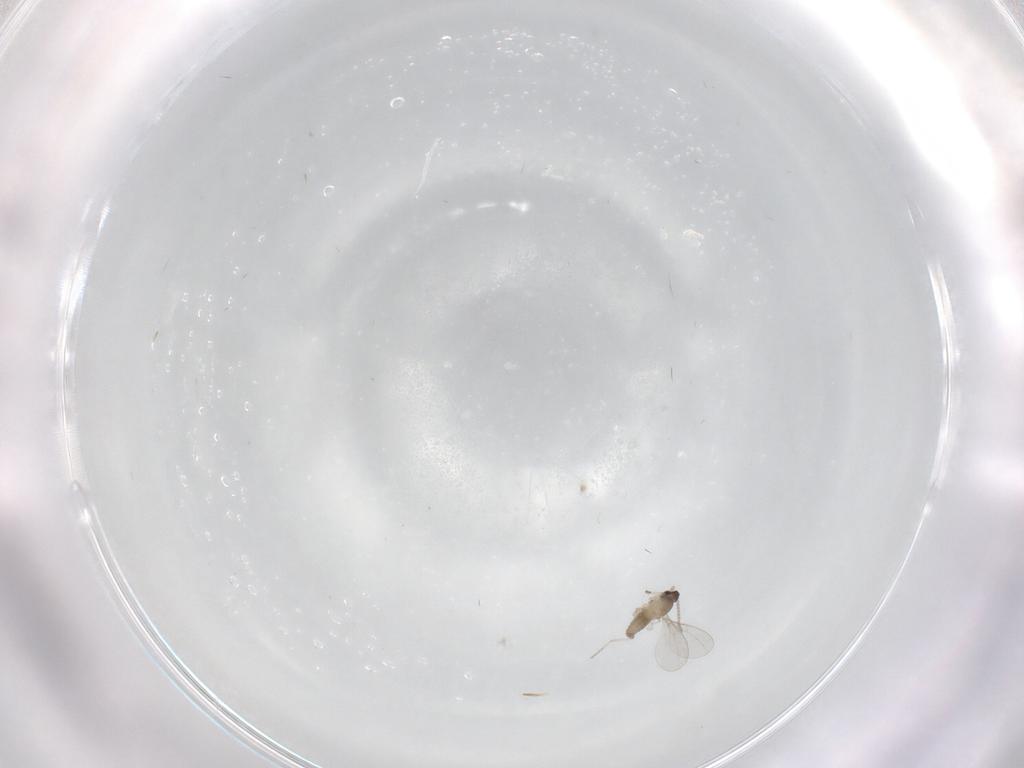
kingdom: Animalia
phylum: Arthropoda
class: Insecta
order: Diptera
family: Cecidomyiidae
